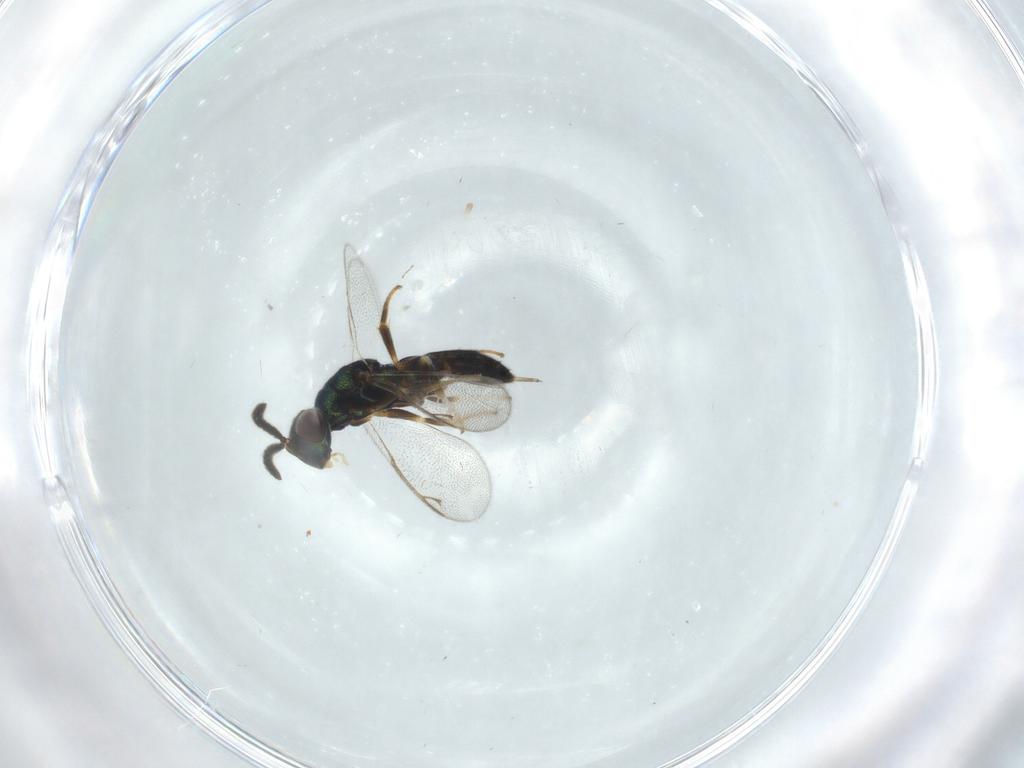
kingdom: Animalia
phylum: Arthropoda
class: Insecta
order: Hymenoptera
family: Cleonyminae
